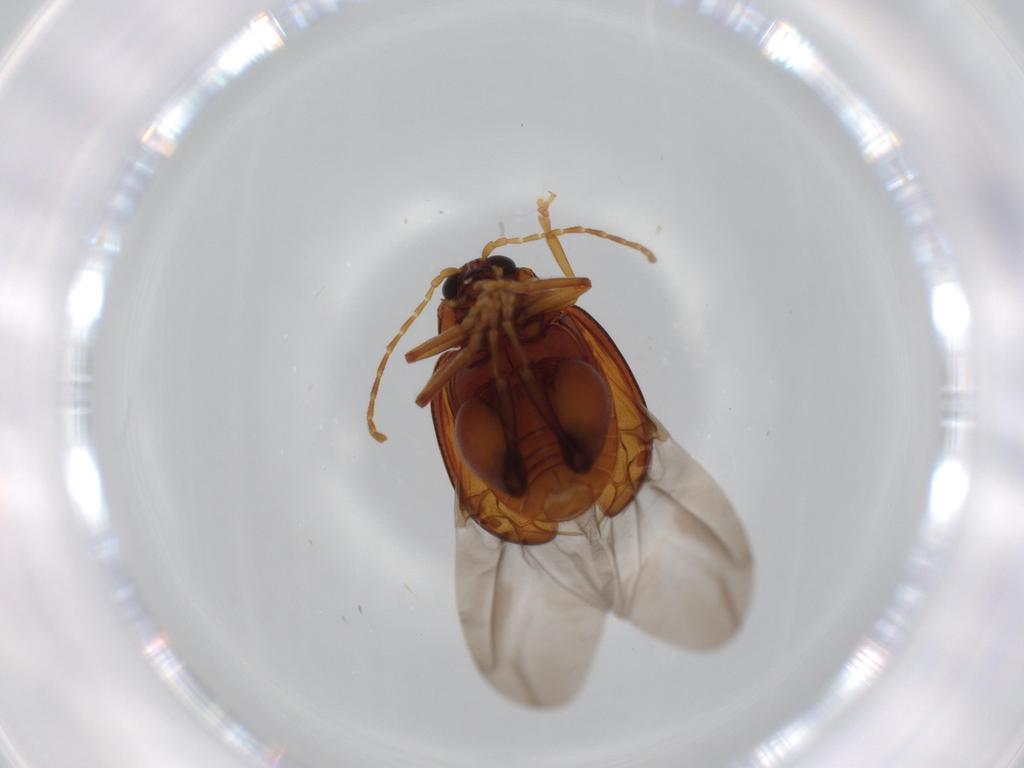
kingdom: Animalia
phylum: Arthropoda
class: Insecta
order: Coleoptera
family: Chrysomelidae
